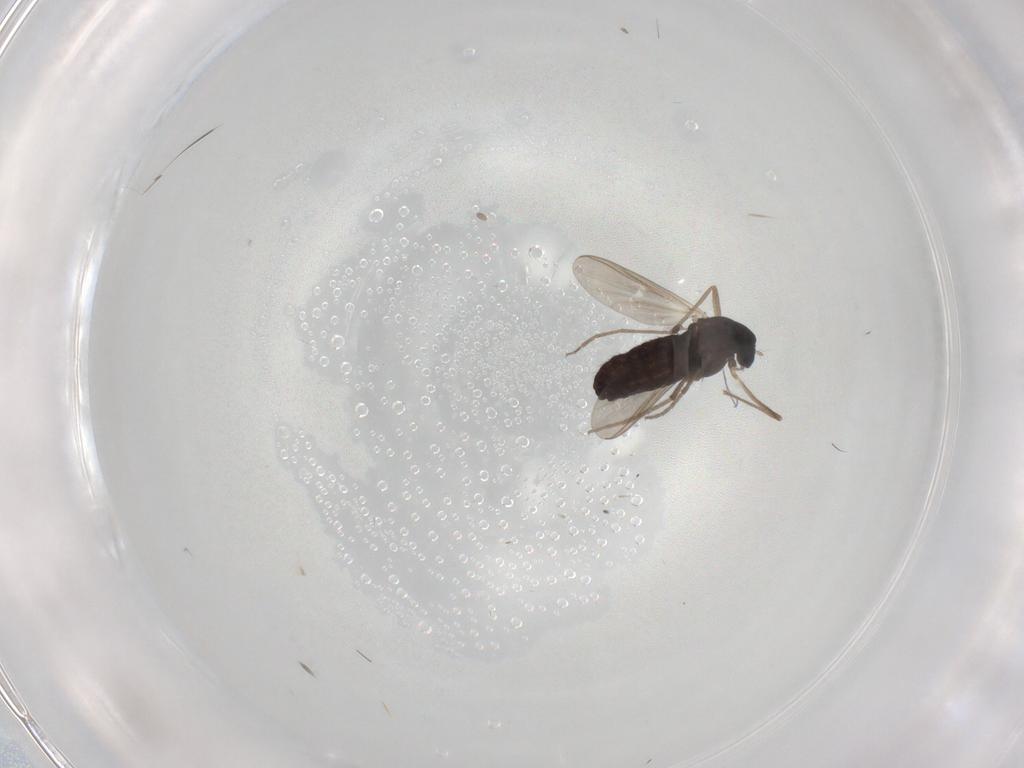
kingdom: Animalia
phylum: Arthropoda
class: Insecta
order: Diptera
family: Chironomidae
